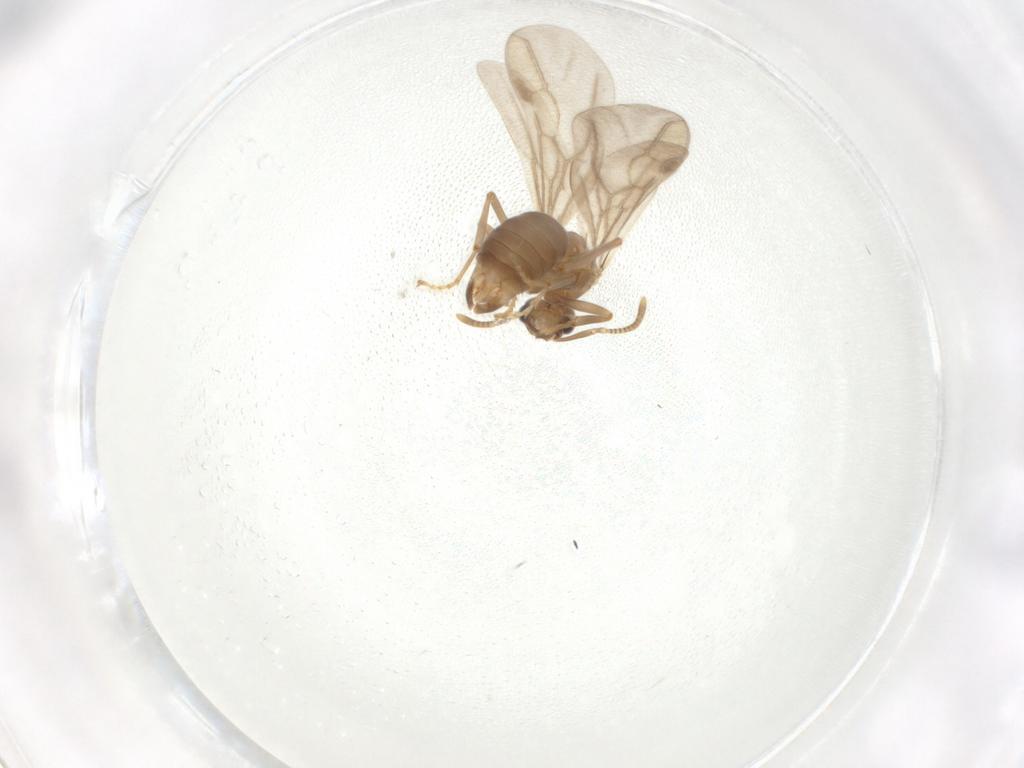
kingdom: Animalia
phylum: Arthropoda
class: Insecta
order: Hymenoptera
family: Formicidae
